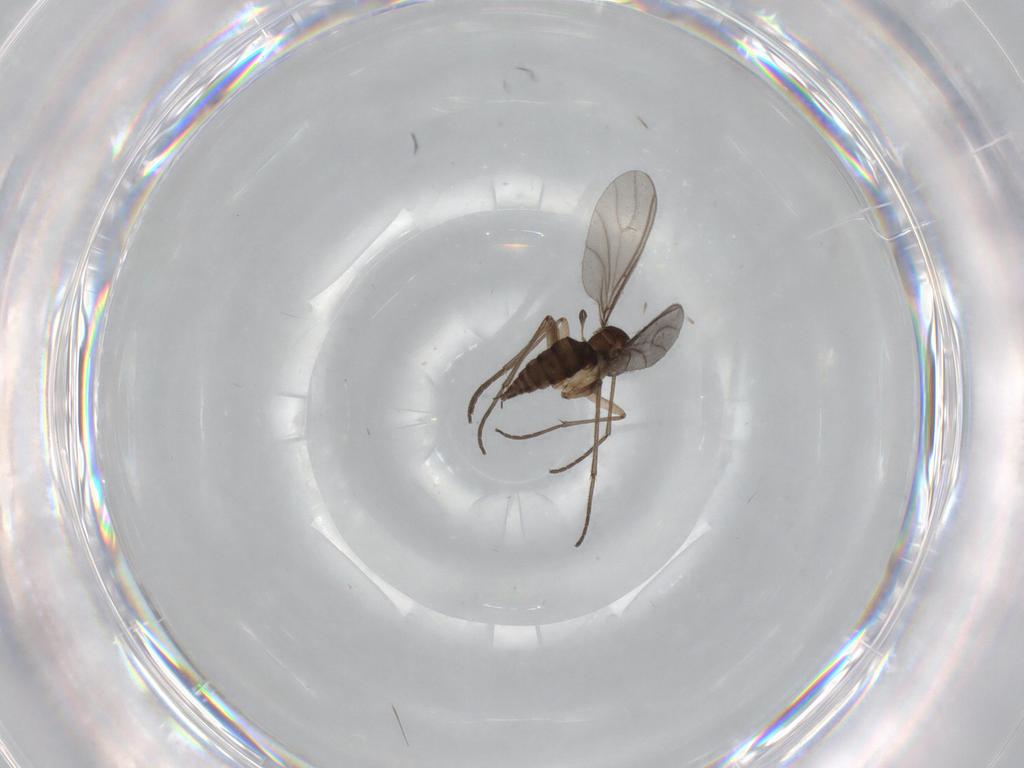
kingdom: Animalia
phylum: Arthropoda
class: Insecta
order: Diptera
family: Sciaridae
